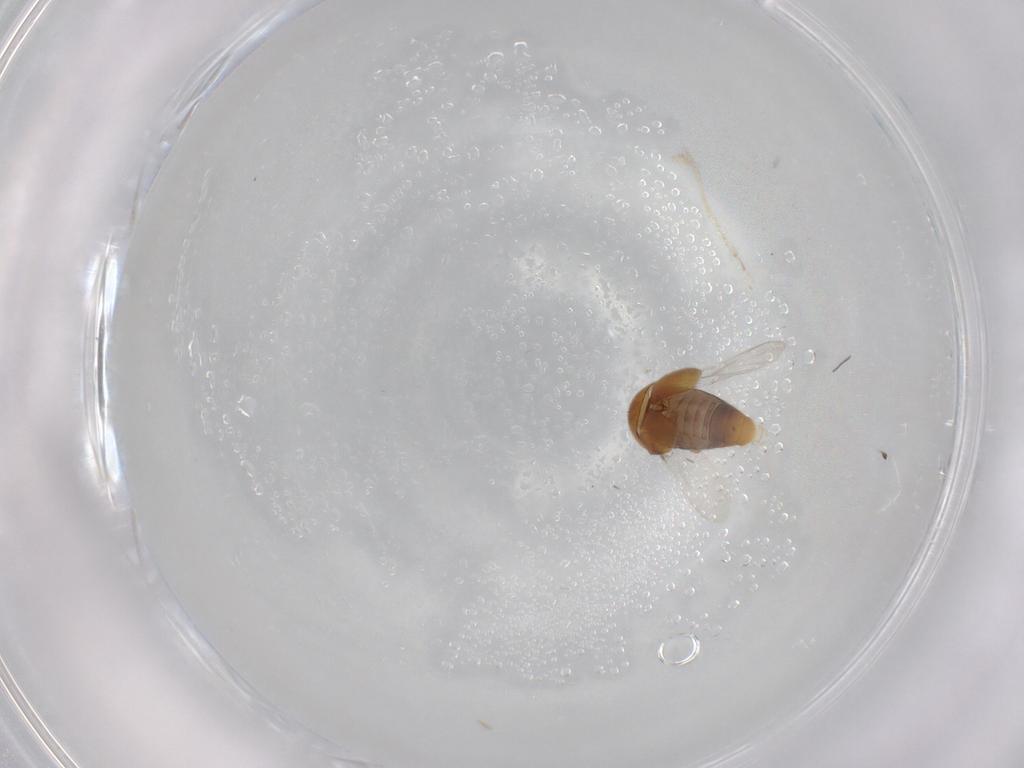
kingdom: Animalia
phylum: Arthropoda
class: Insecta
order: Coleoptera
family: Corylophidae
